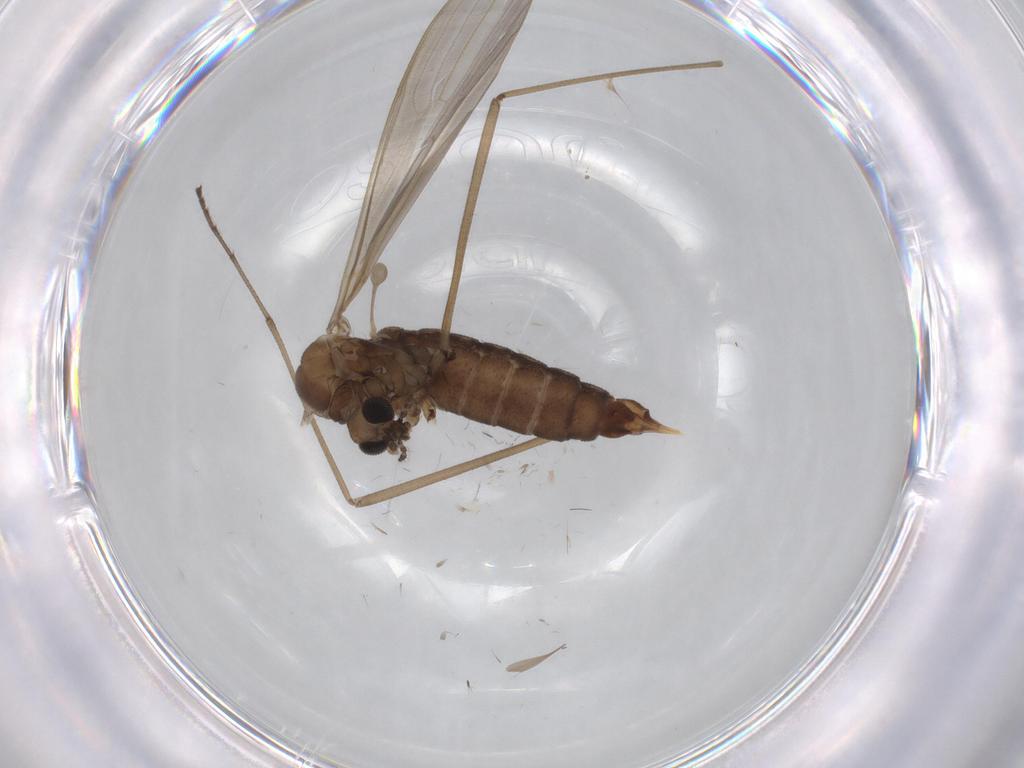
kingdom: Animalia
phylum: Arthropoda
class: Insecta
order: Diptera
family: Limoniidae
